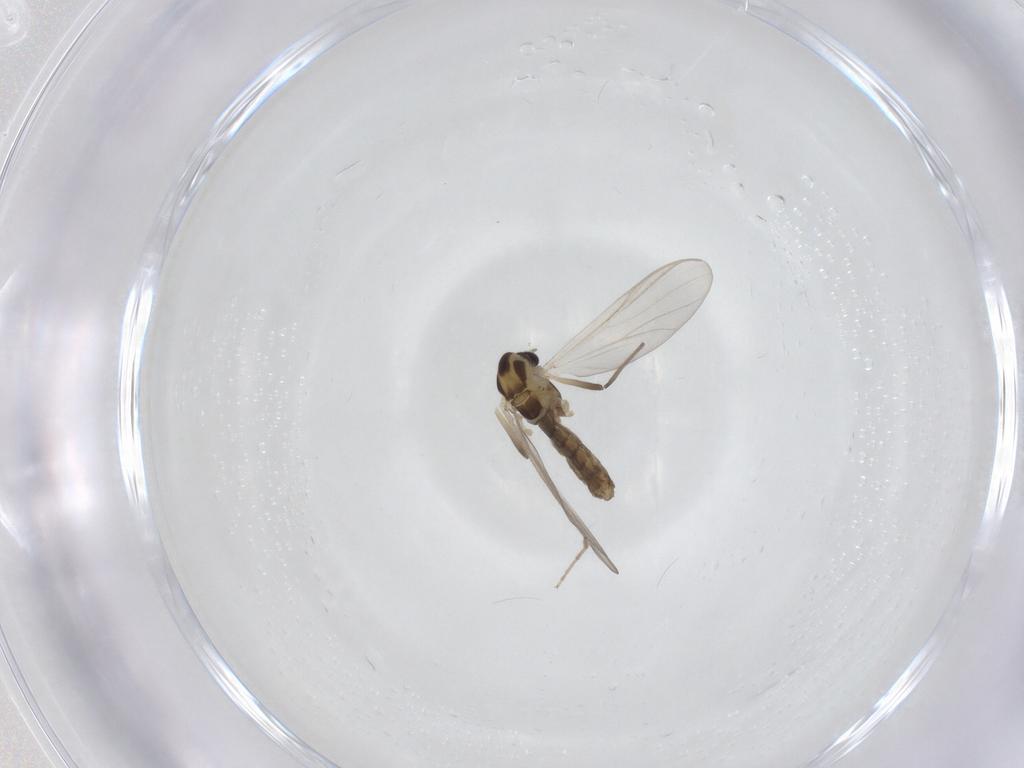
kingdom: Animalia
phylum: Arthropoda
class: Insecta
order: Diptera
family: Chironomidae
